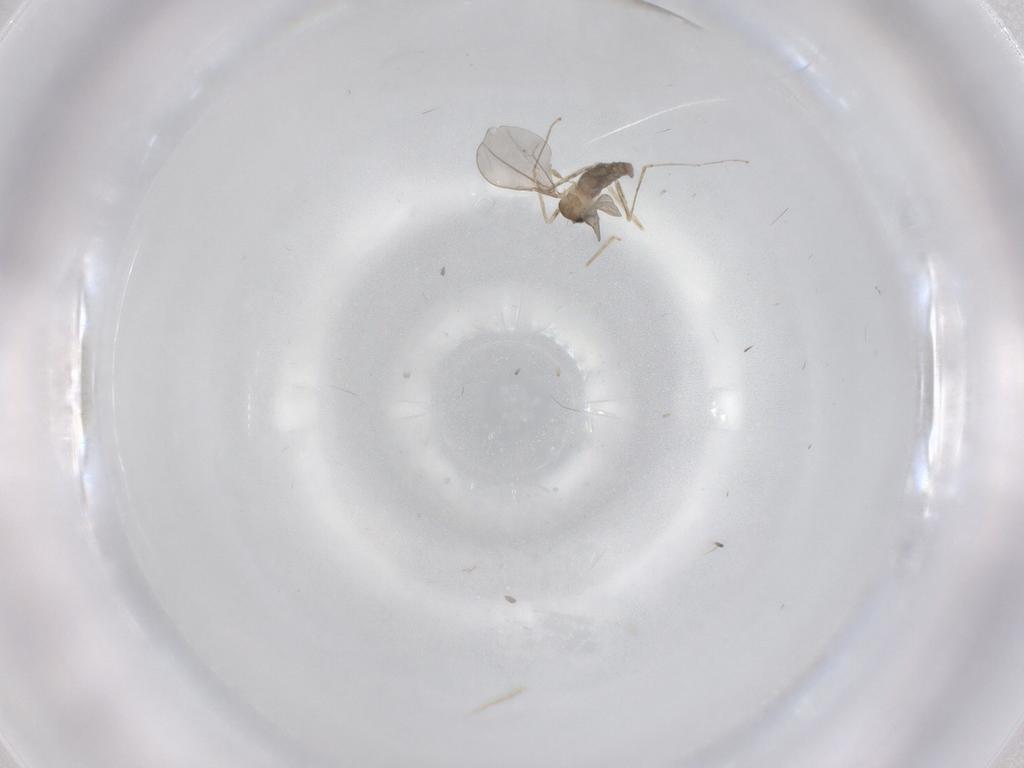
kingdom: Animalia
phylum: Arthropoda
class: Insecta
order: Diptera
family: Cecidomyiidae
